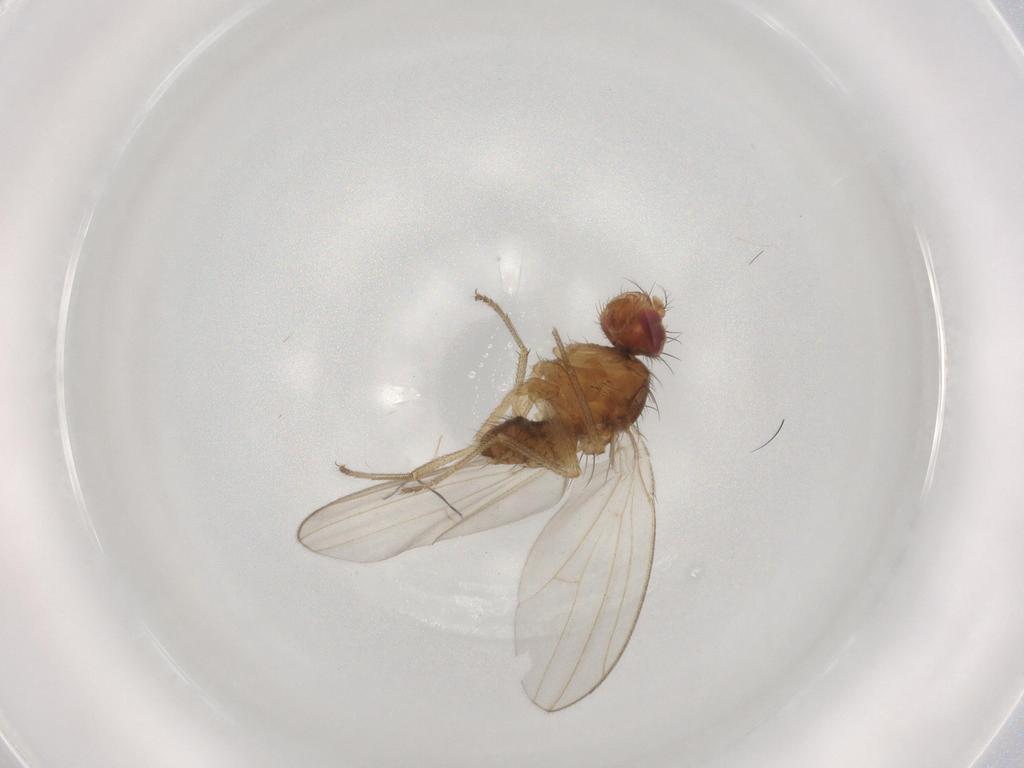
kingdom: Animalia
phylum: Arthropoda
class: Insecta
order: Diptera
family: Drosophilidae
